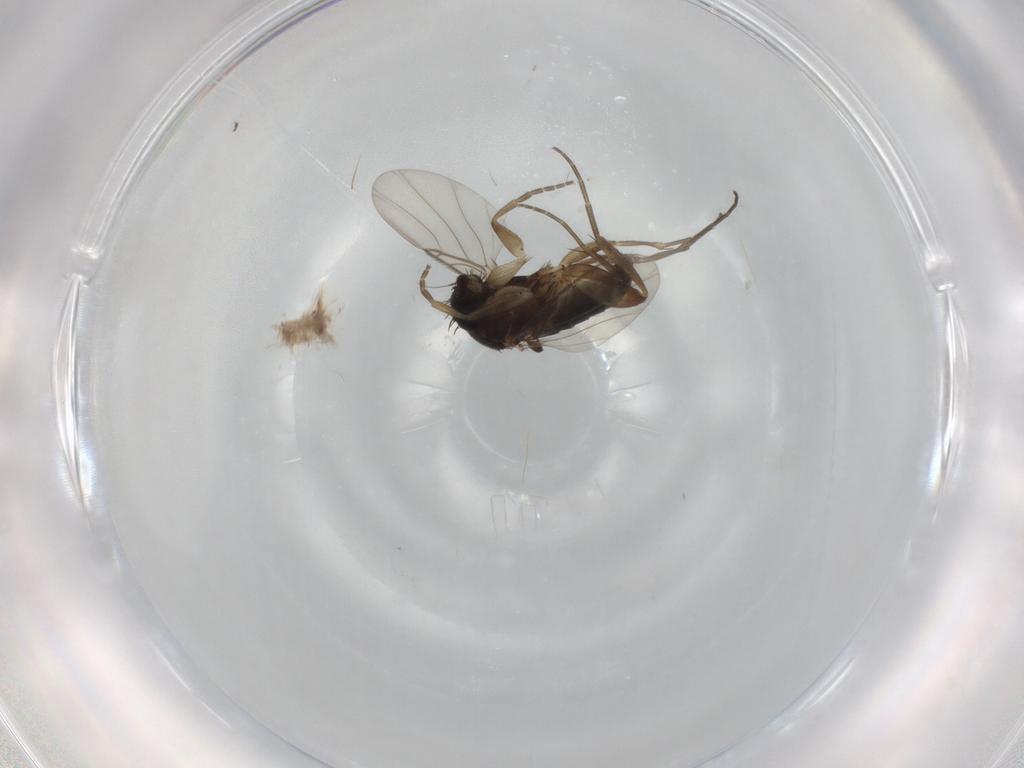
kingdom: Animalia
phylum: Arthropoda
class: Insecta
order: Diptera
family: Phoridae
